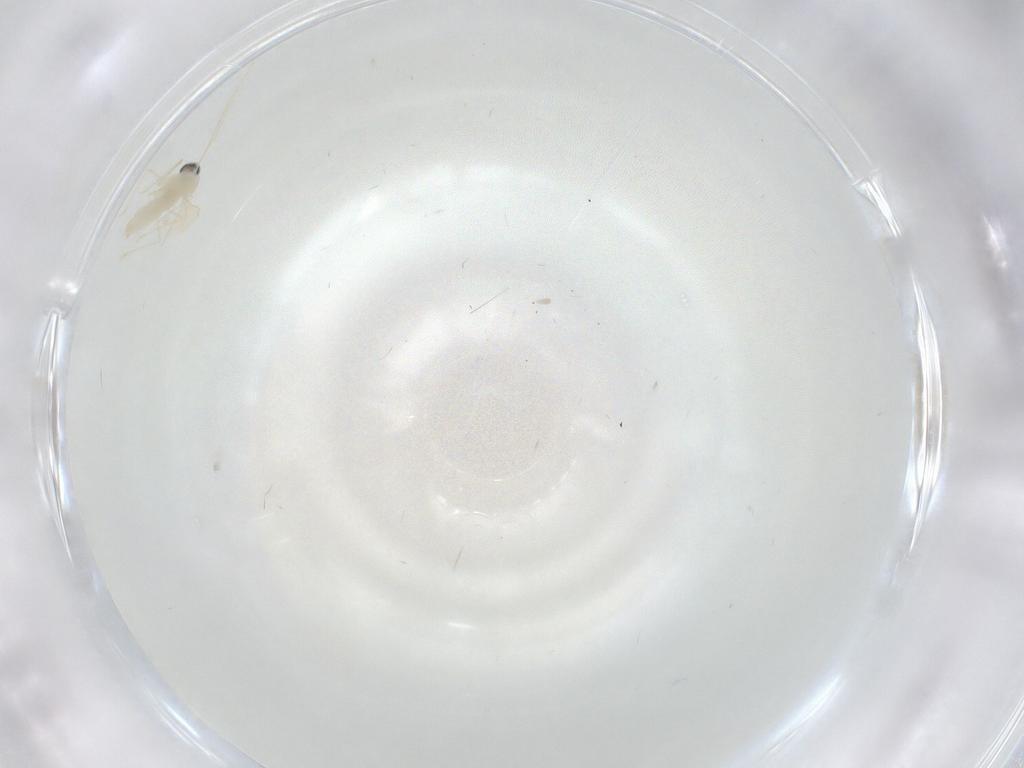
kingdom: Animalia
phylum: Arthropoda
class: Insecta
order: Diptera
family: Cecidomyiidae
